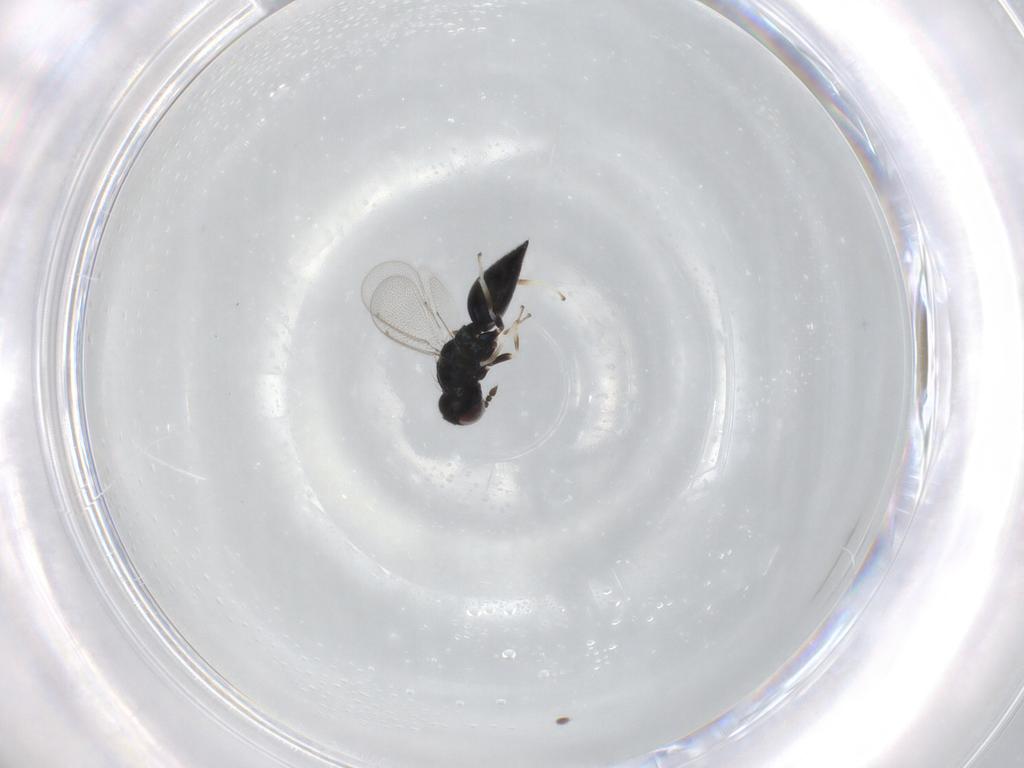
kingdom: Animalia
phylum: Arthropoda
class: Insecta
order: Hymenoptera
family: Eulophidae
